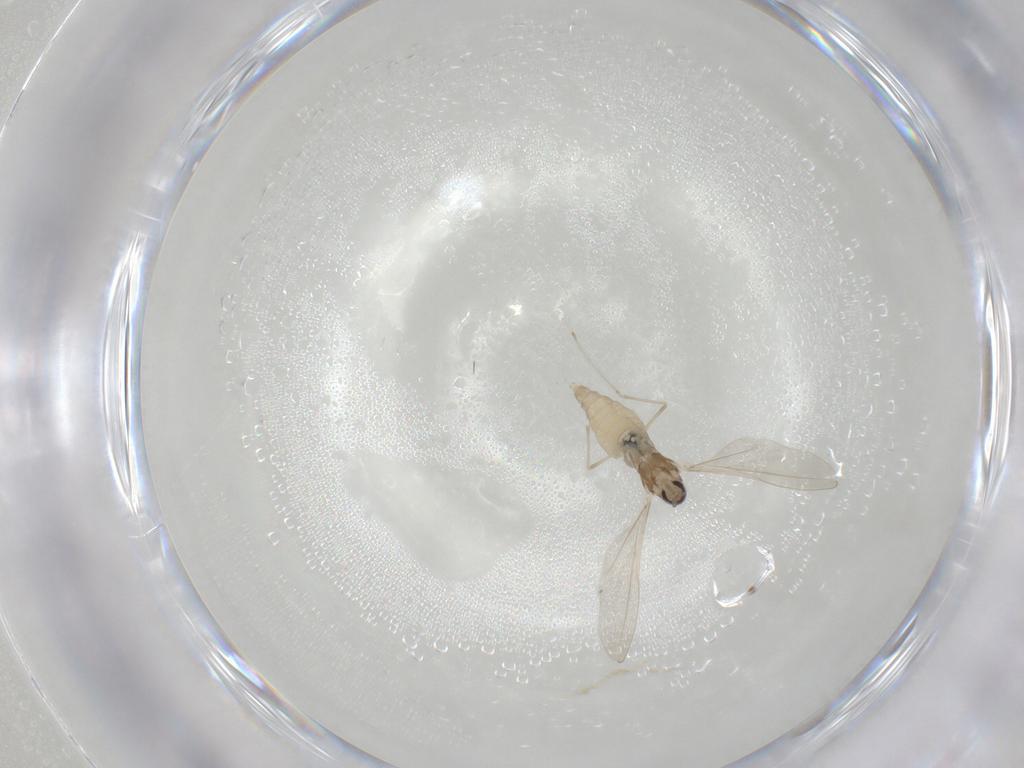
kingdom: Animalia
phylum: Arthropoda
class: Insecta
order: Diptera
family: Cecidomyiidae
